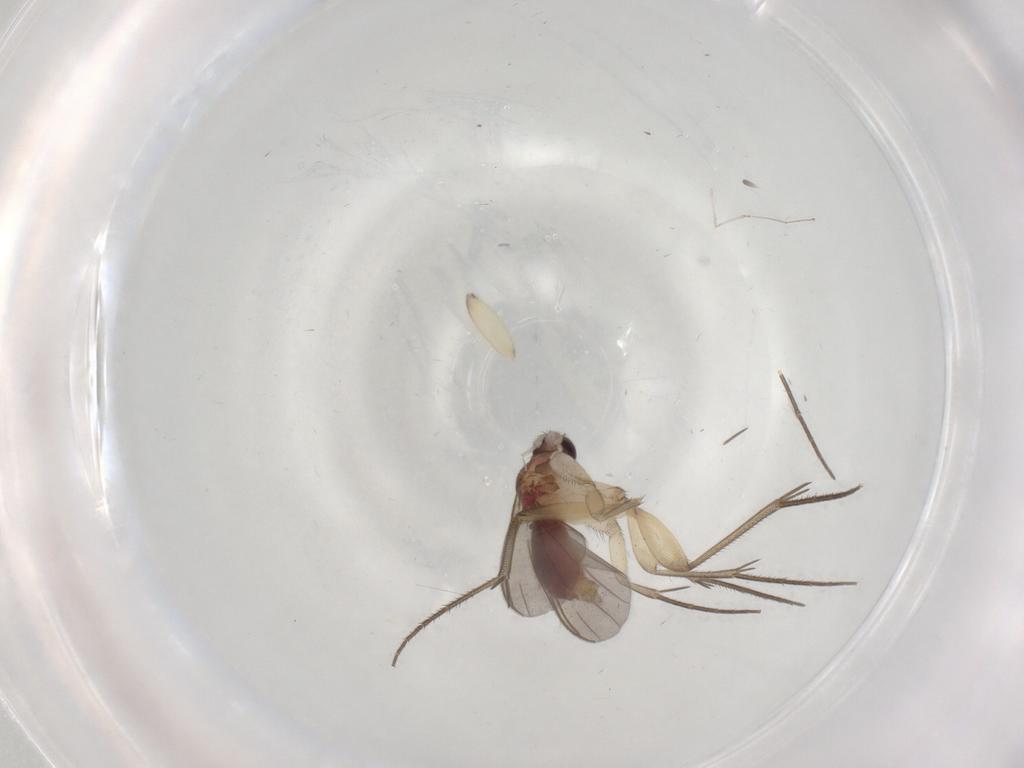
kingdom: Animalia
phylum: Arthropoda
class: Insecta
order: Diptera
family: Mycetophilidae
